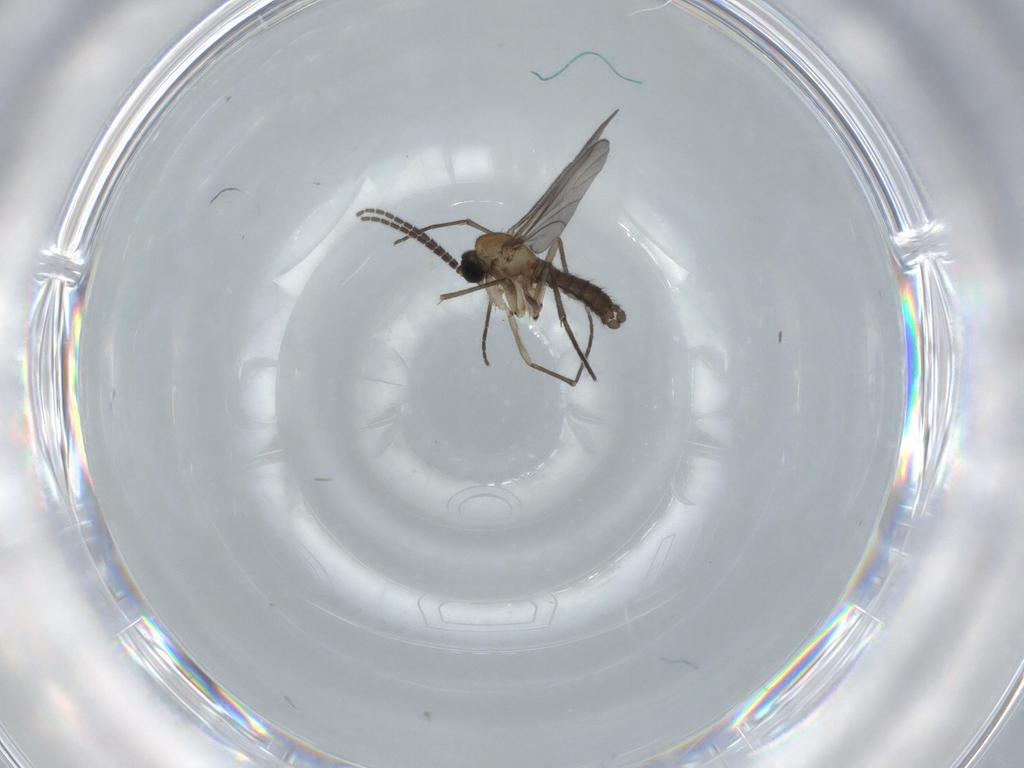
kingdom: Animalia
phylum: Arthropoda
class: Insecta
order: Diptera
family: Sciaridae
